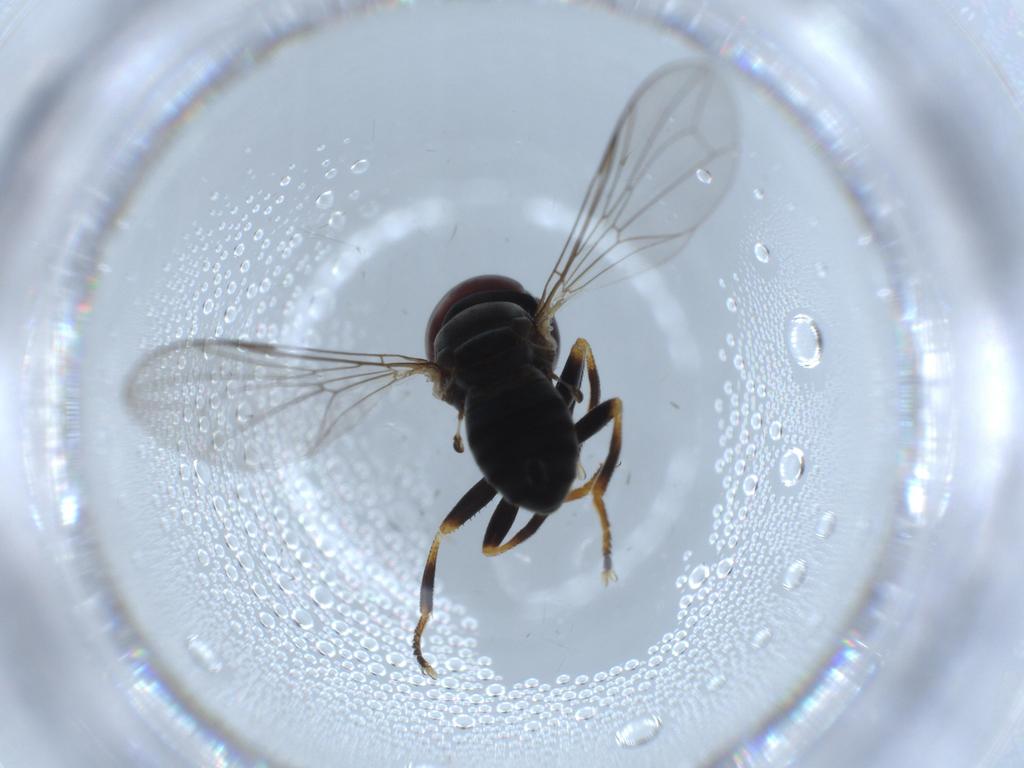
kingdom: Animalia
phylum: Arthropoda
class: Insecta
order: Diptera
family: Pipunculidae
